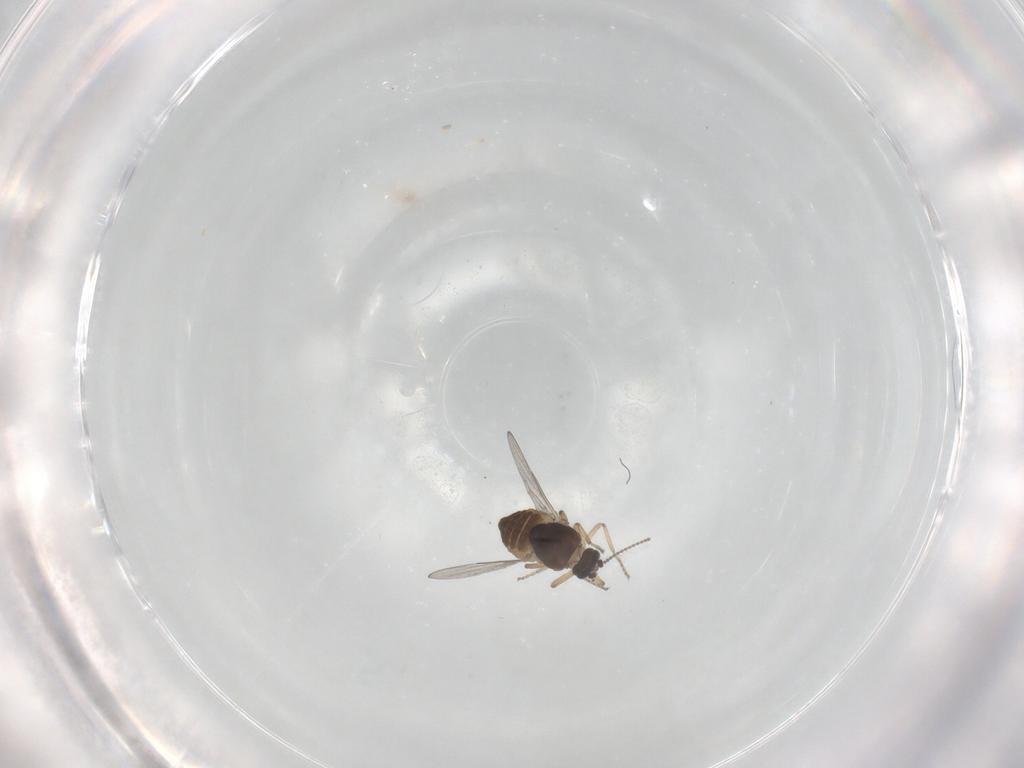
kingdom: Animalia
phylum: Arthropoda
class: Insecta
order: Diptera
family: Ceratopogonidae
